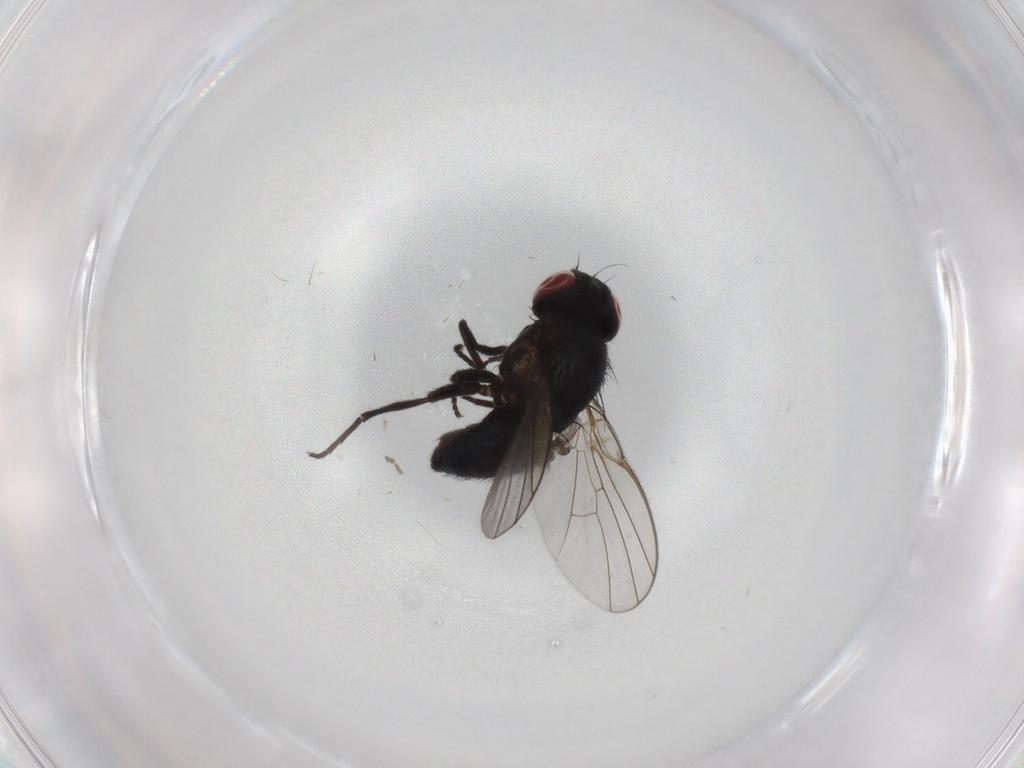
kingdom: Animalia
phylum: Arthropoda
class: Insecta
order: Diptera
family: Agromyzidae
